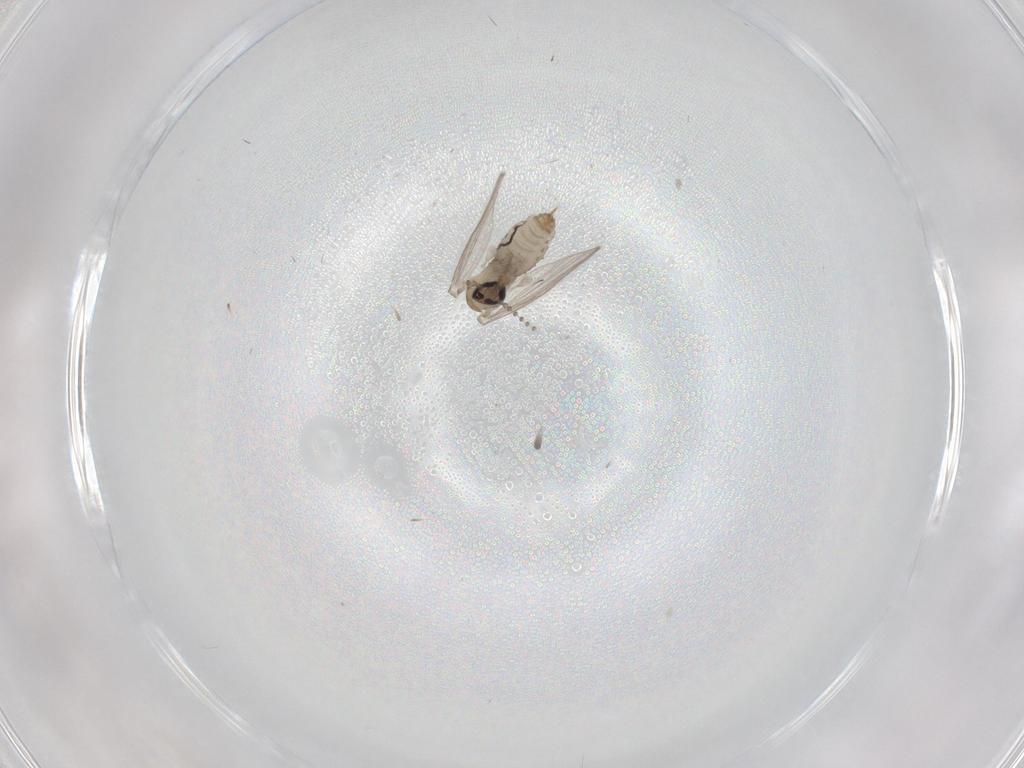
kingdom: Animalia
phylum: Arthropoda
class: Insecta
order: Diptera
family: Psychodidae
